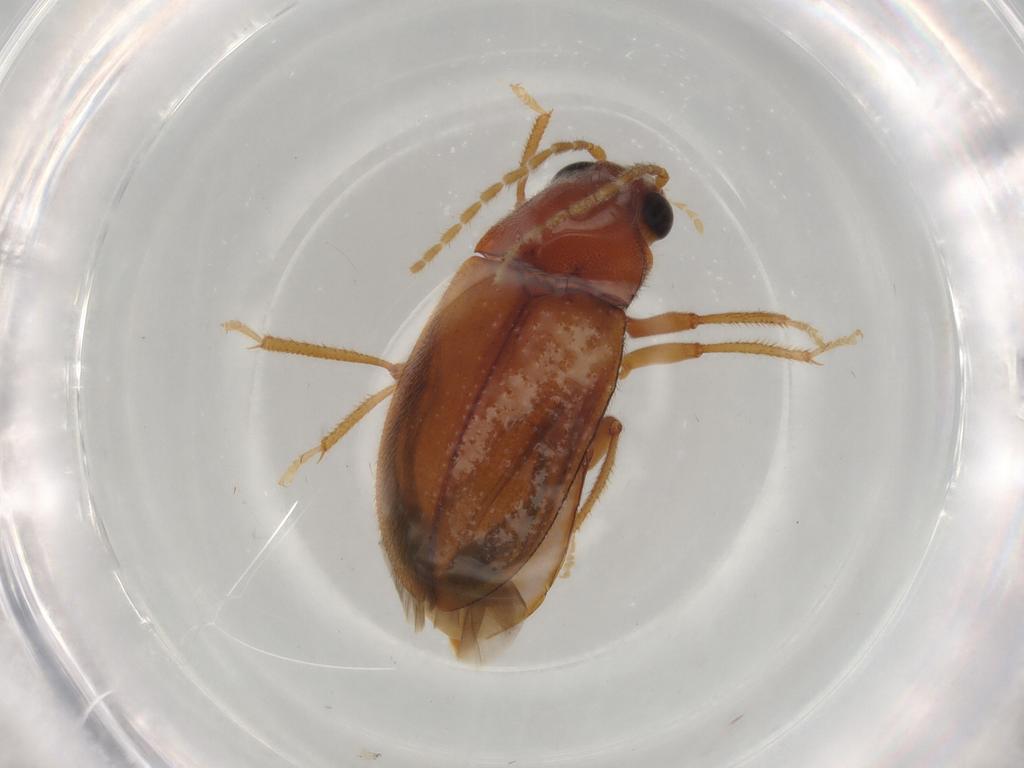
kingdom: Animalia
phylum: Arthropoda
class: Insecta
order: Coleoptera
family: Ptilodactylidae
